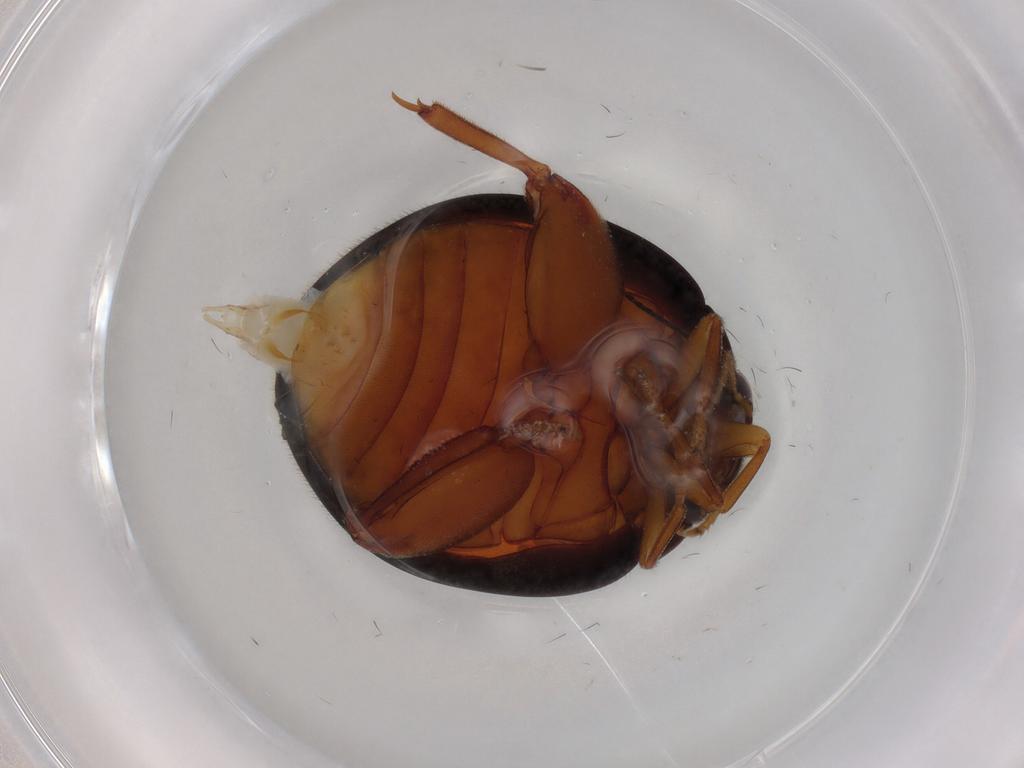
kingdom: Animalia
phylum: Arthropoda
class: Insecta
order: Coleoptera
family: Scirtidae
